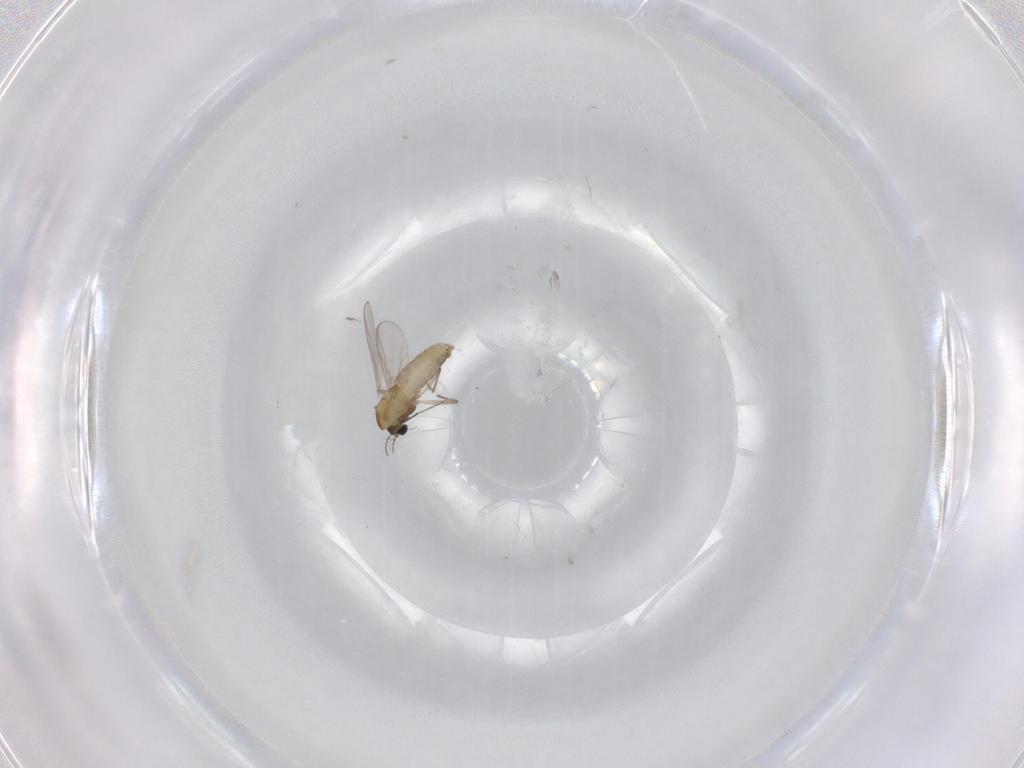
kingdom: Animalia
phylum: Arthropoda
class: Insecta
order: Diptera
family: Chironomidae
